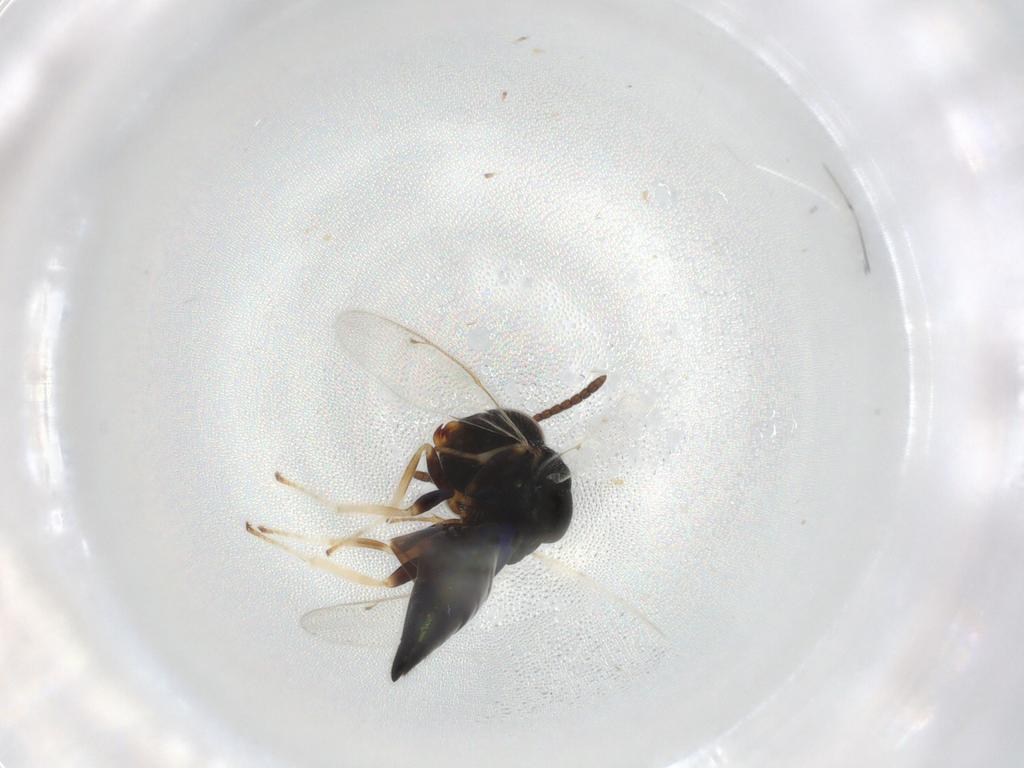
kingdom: Animalia
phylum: Arthropoda
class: Insecta
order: Hymenoptera
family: Pteromalidae
